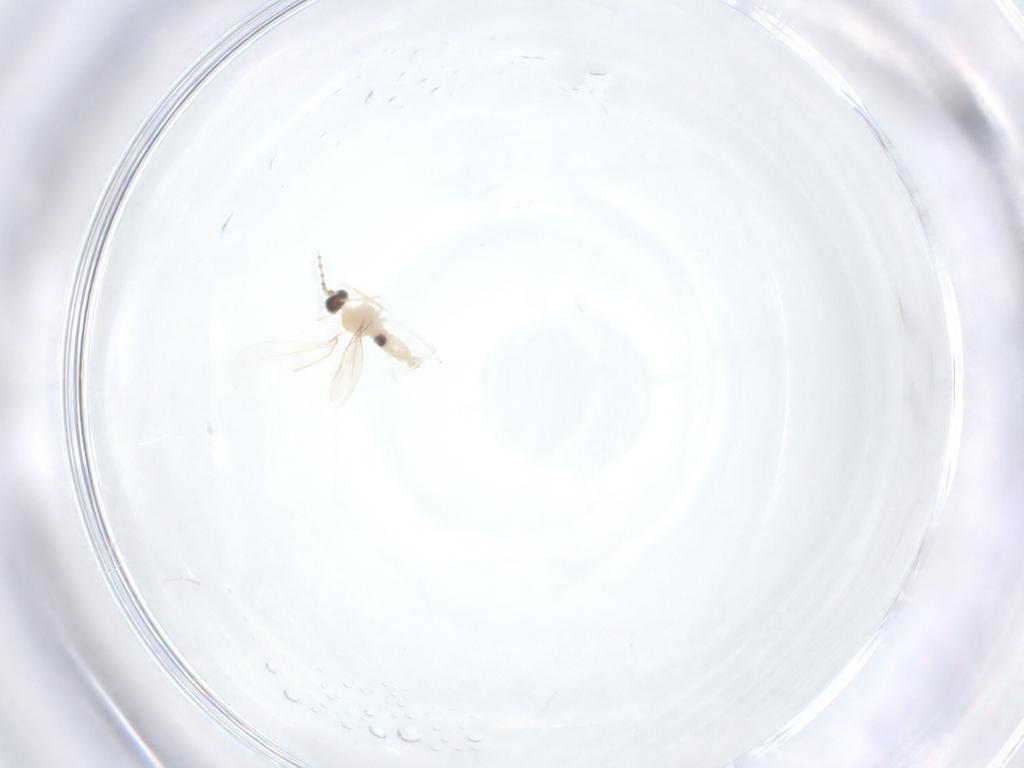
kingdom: Animalia
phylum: Arthropoda
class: Insecta
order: Diptera
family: Cecidomyiidae
